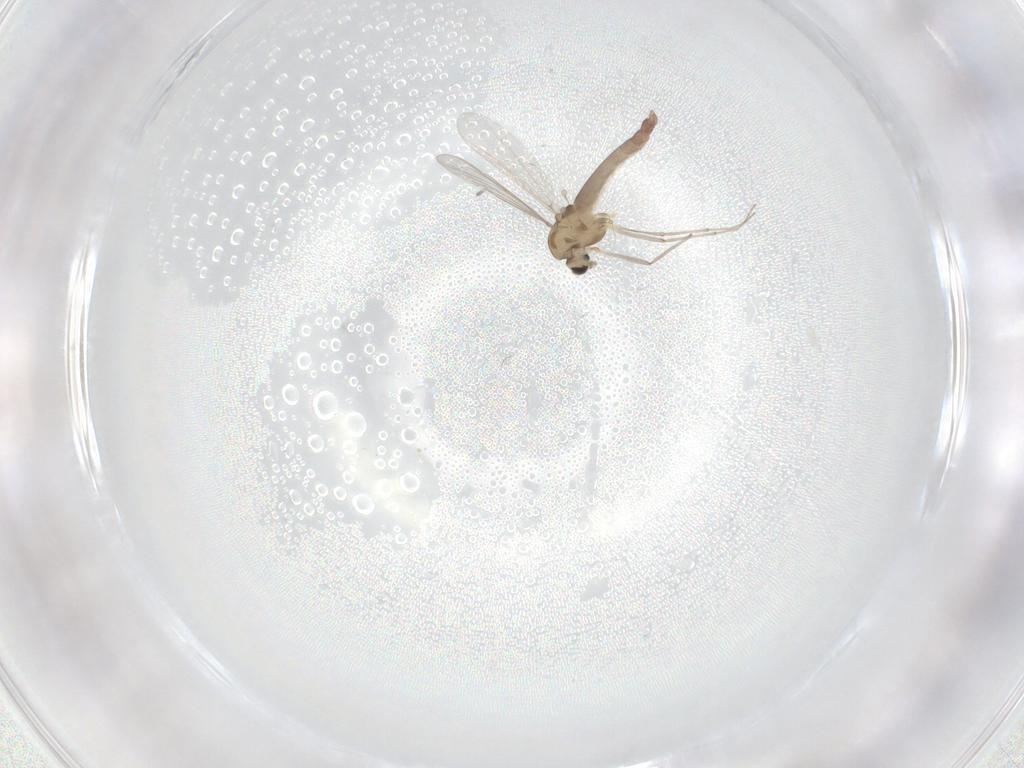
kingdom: Animalia
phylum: Arthropoda
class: Insecta
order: Diptera
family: Chironomidae
